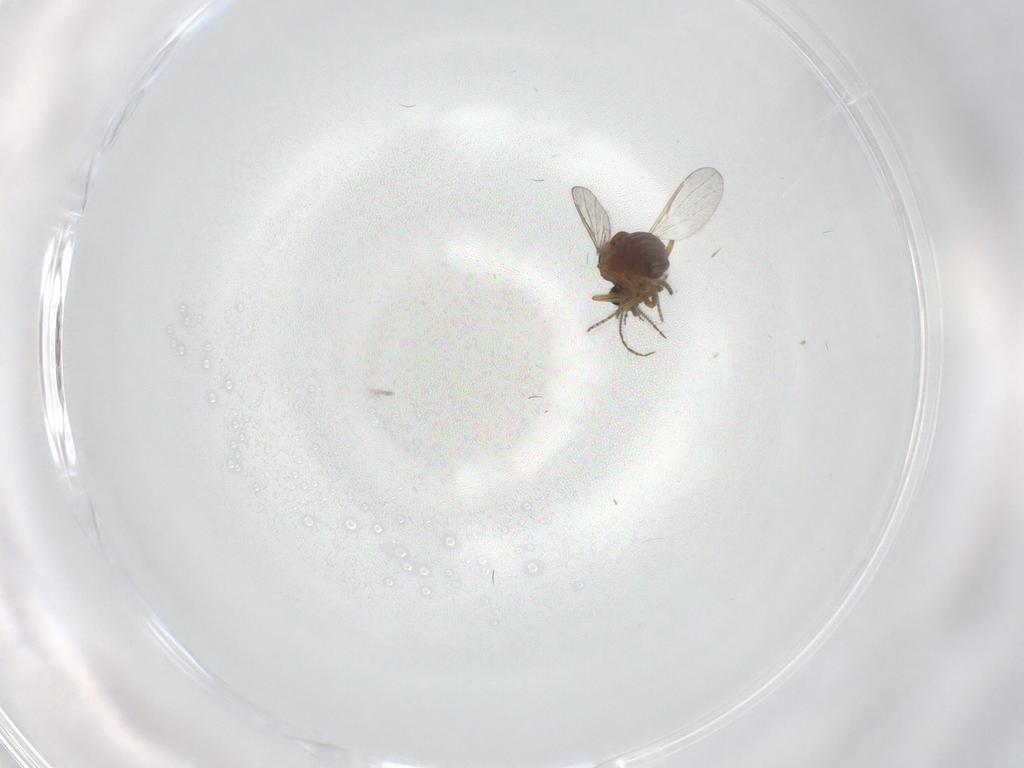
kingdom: Animalia
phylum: Arthropoda
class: Insecta
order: Diptera
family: Ceratopogonidae
